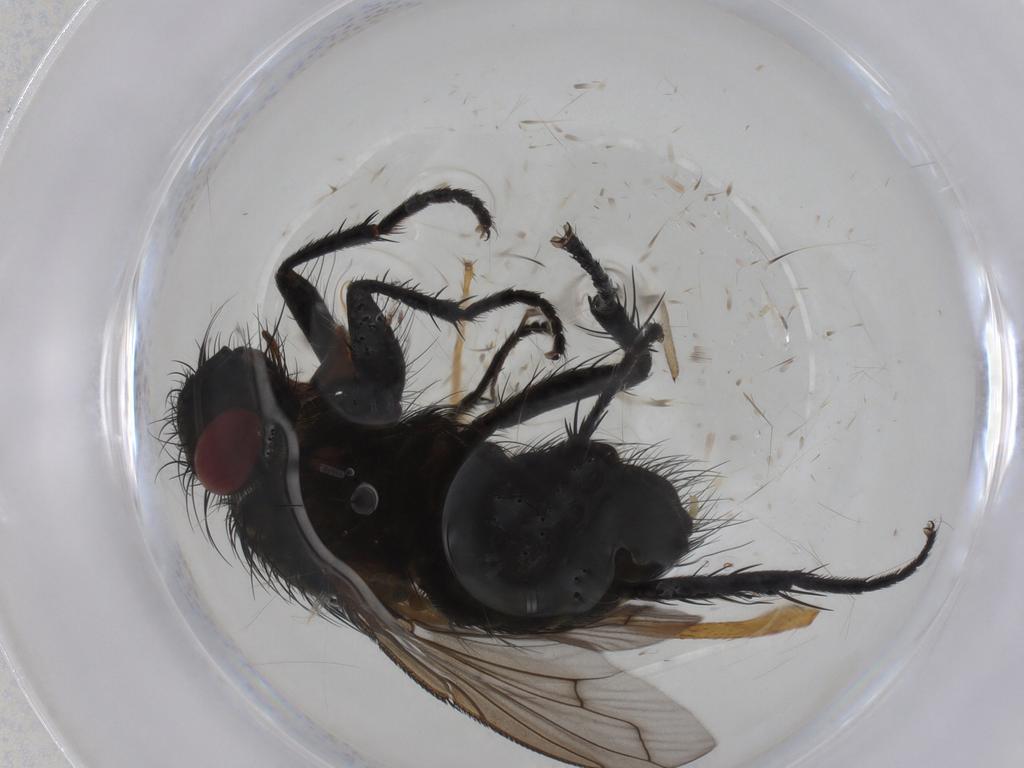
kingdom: Animalia
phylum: Arthropoda
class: Insecta
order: Diptera
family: Tachinidae
